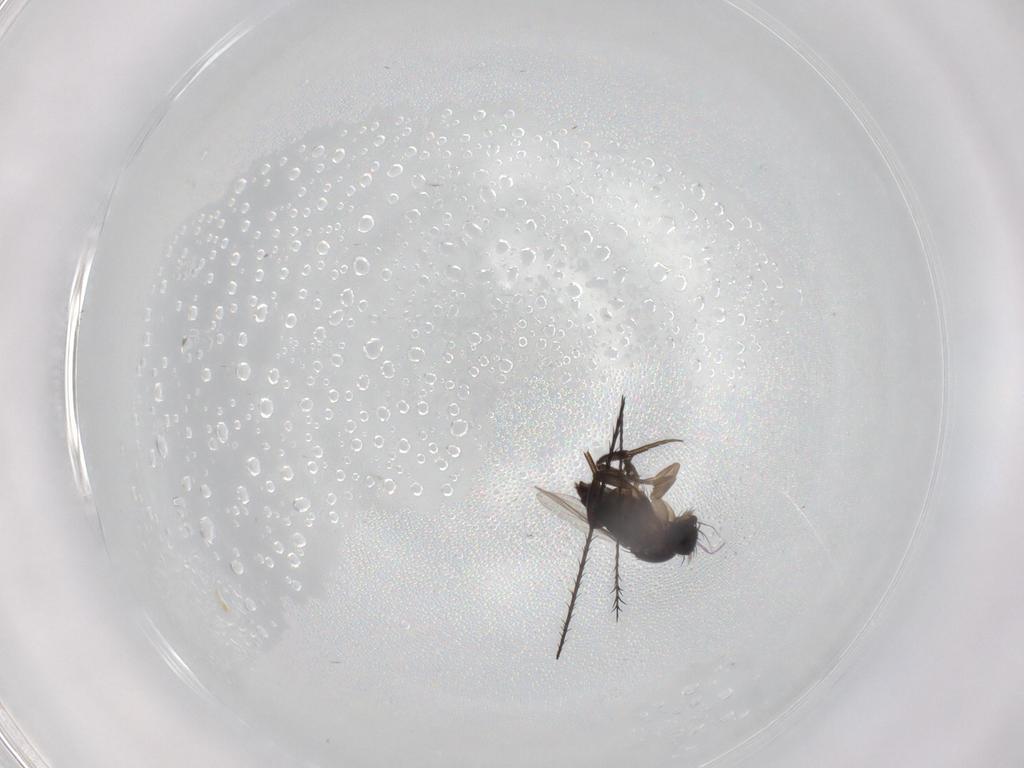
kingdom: Animalia
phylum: Arthropoda
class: Insecta
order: Diptera
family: Phoridae
